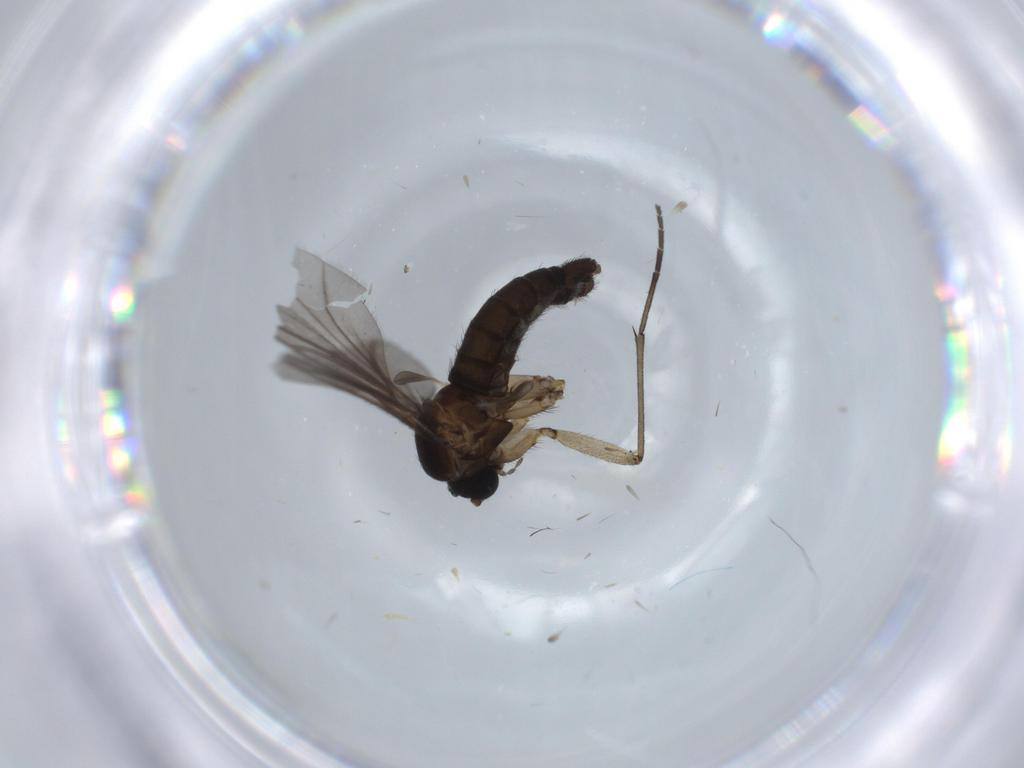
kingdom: Animalia
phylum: Arthropoda
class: Insecta
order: Diptera
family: Sciaridae
